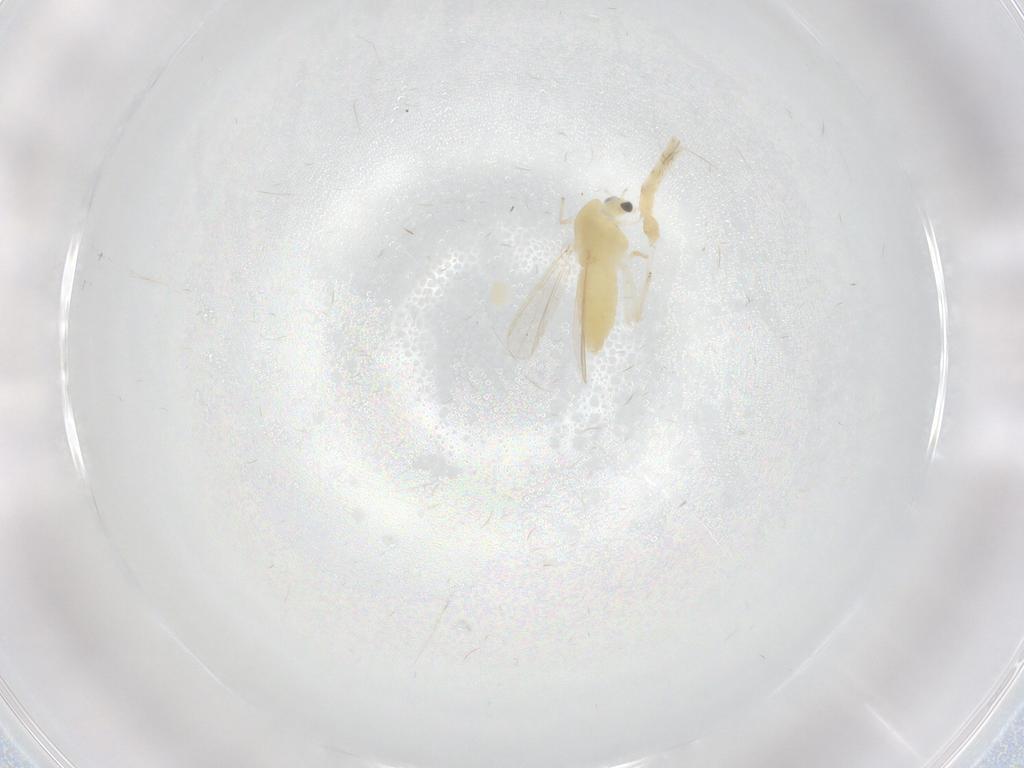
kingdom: Animalia
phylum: Arthropoda
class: Insecta
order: Diptera
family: Chironomidae
